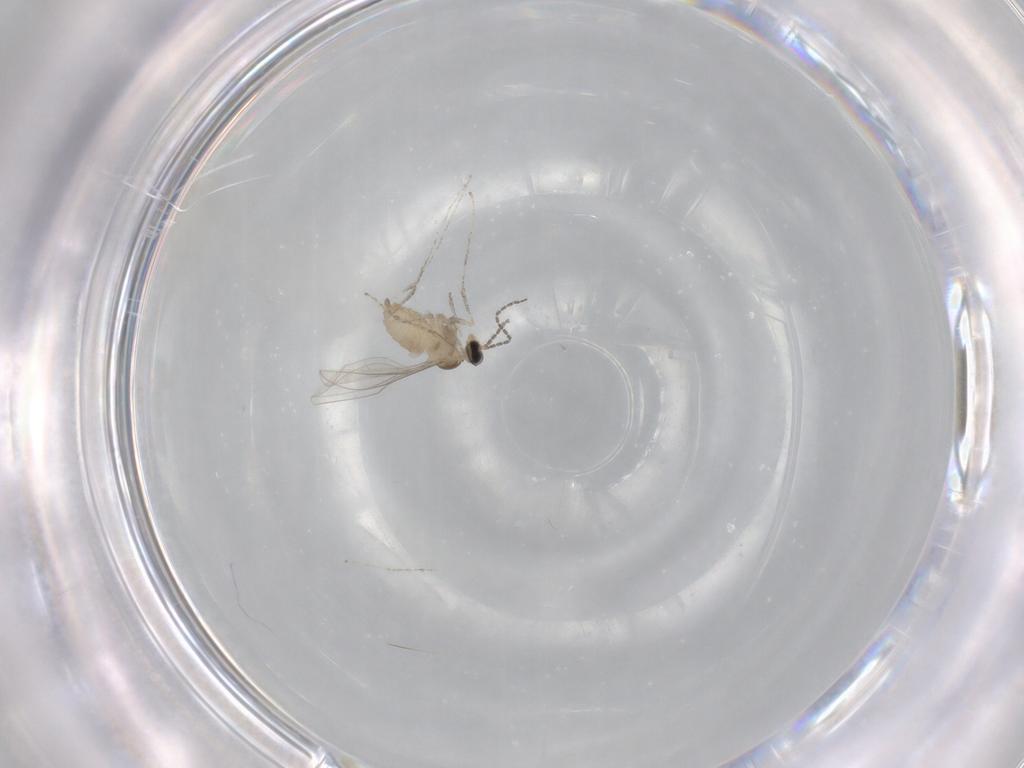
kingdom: Animalia
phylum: Arthropoda
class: Insecta
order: Diptera
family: Cecidomyiidae
